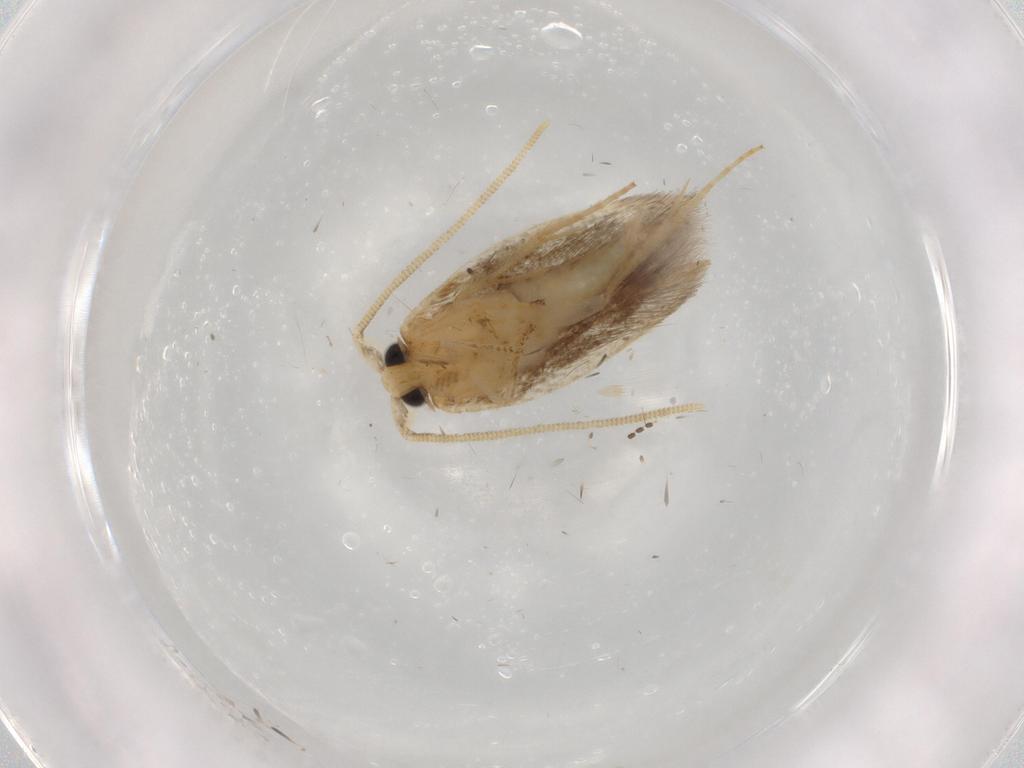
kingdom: Animalia
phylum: Arthropoda
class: Insecta
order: Lepidoptera
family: Opostegidae
